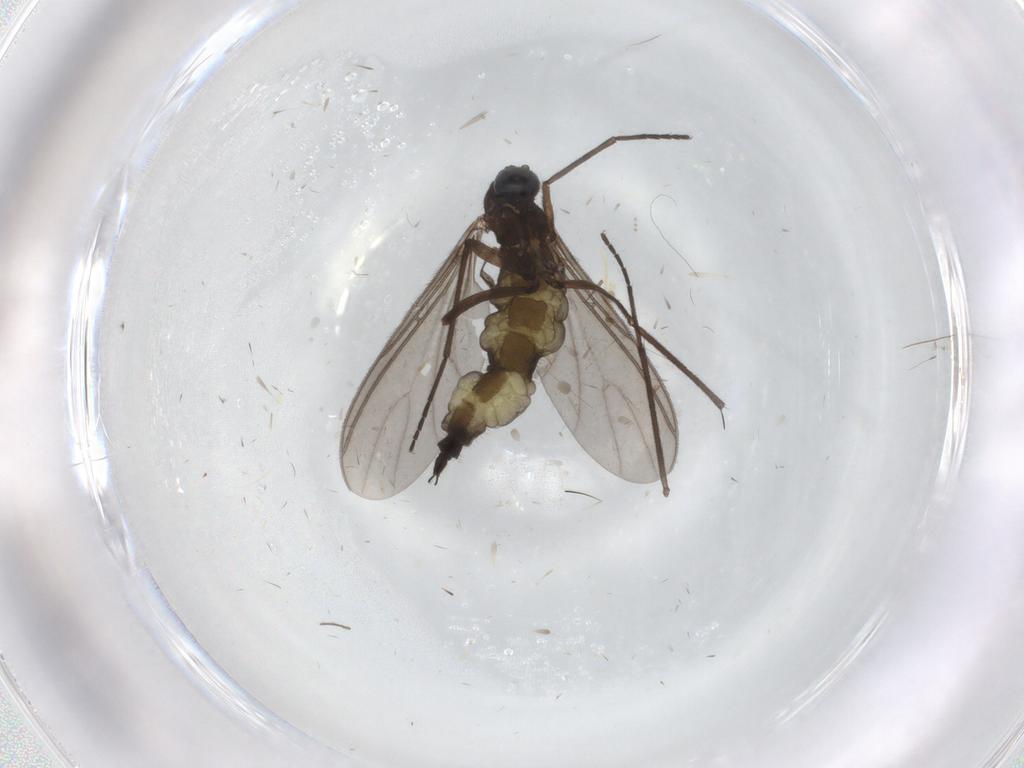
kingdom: Animalia
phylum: Arthropoda
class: Insecta
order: Diptera
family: Sciaridae
